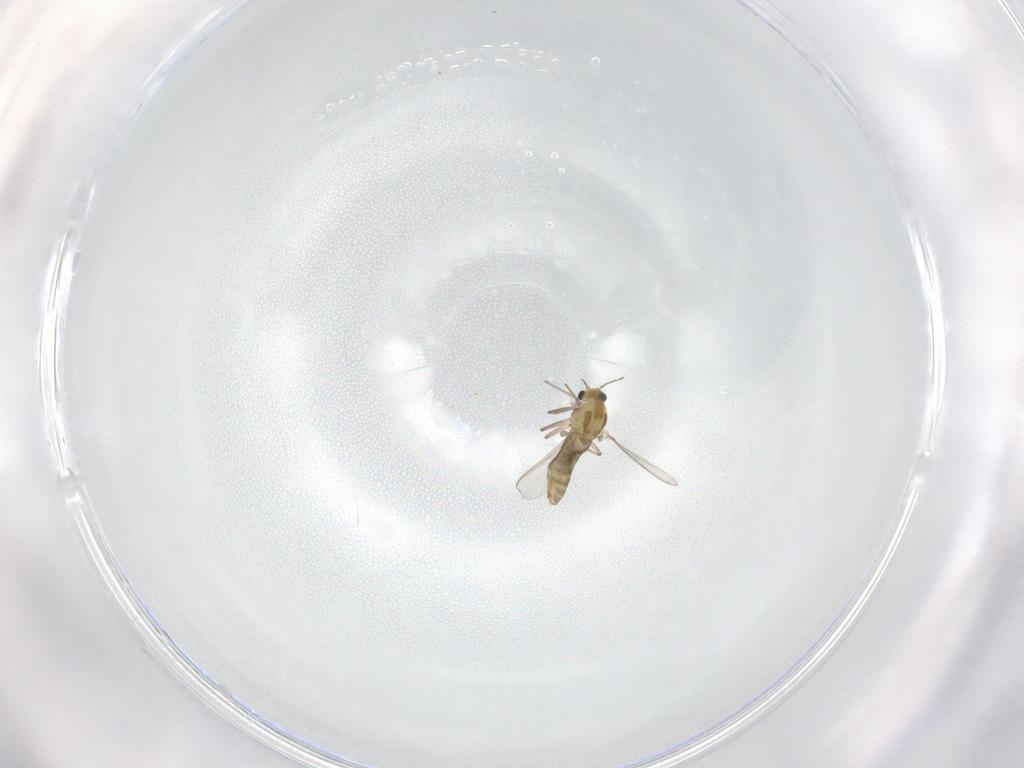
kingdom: Animalia
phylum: Arthropoda
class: Insecta
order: Diptera
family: Chironomidae
